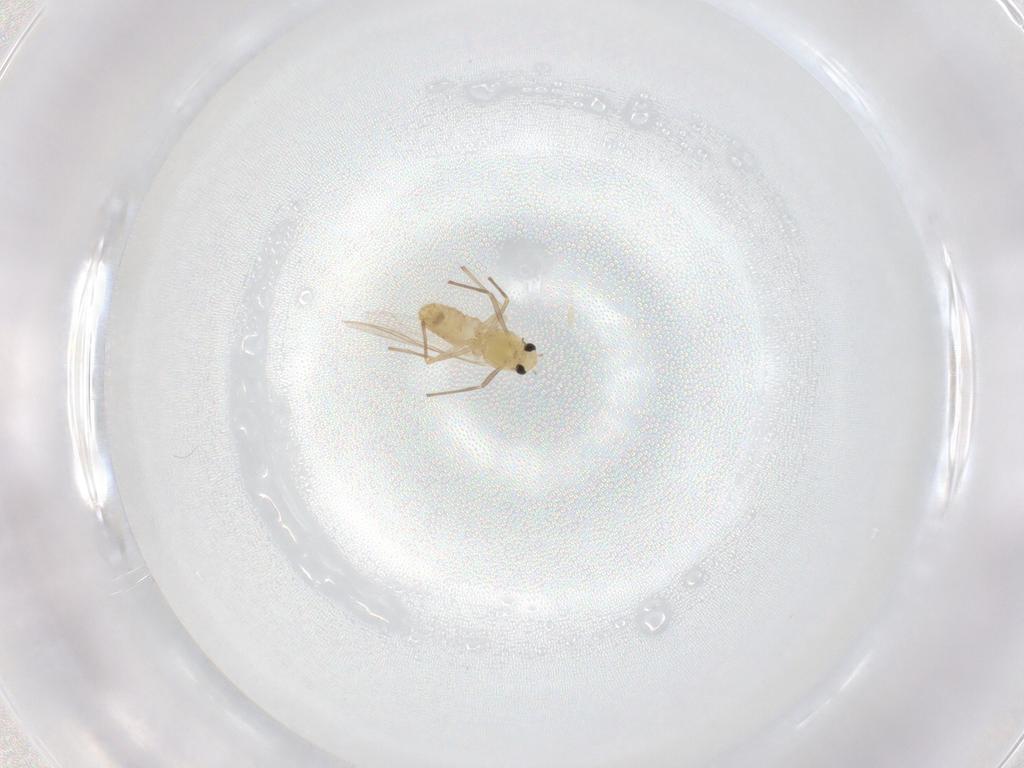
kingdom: Animalia
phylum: Arthropoda
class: Insecta
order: Diptera
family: Chironomidae
